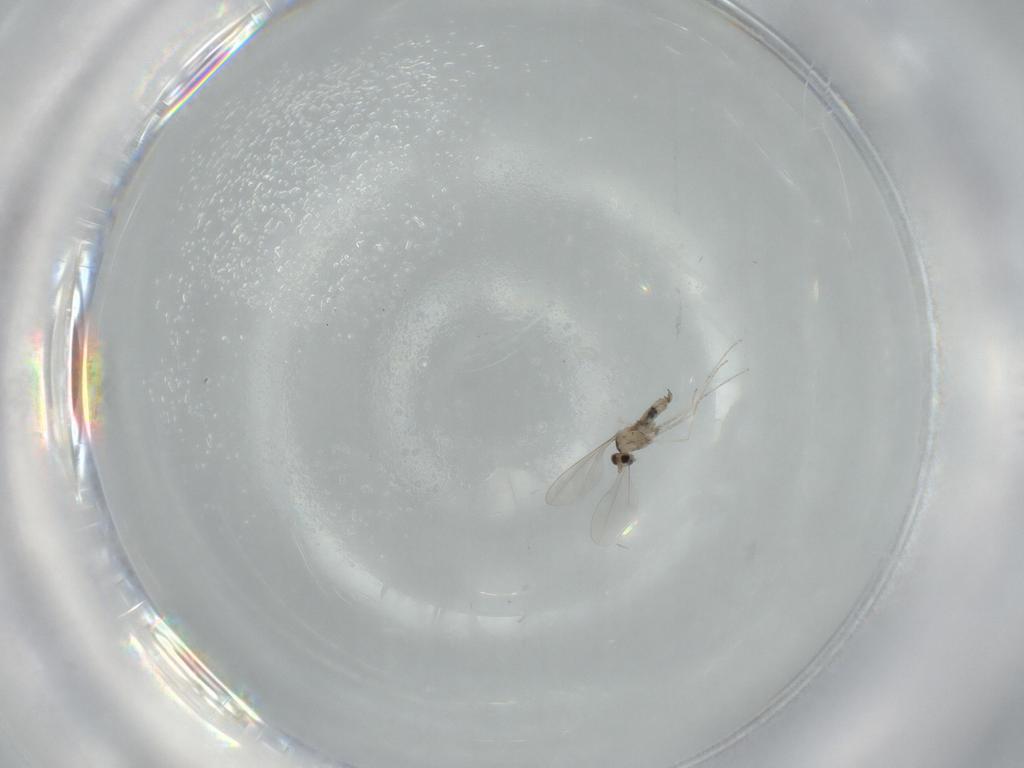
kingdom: Animalia
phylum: Arthropoda
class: Insecta
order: Diptera
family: Cecidomyiidae
